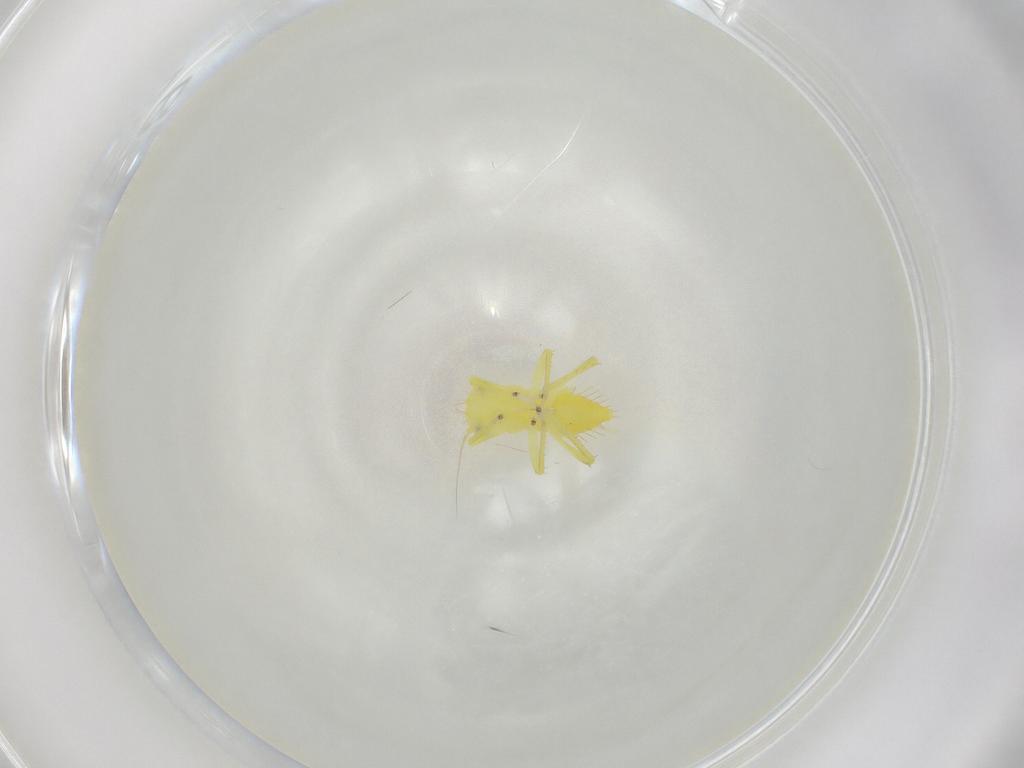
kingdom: Animalia
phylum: Arthropoda
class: Insecta
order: Hemiptera
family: Cicadellidae
